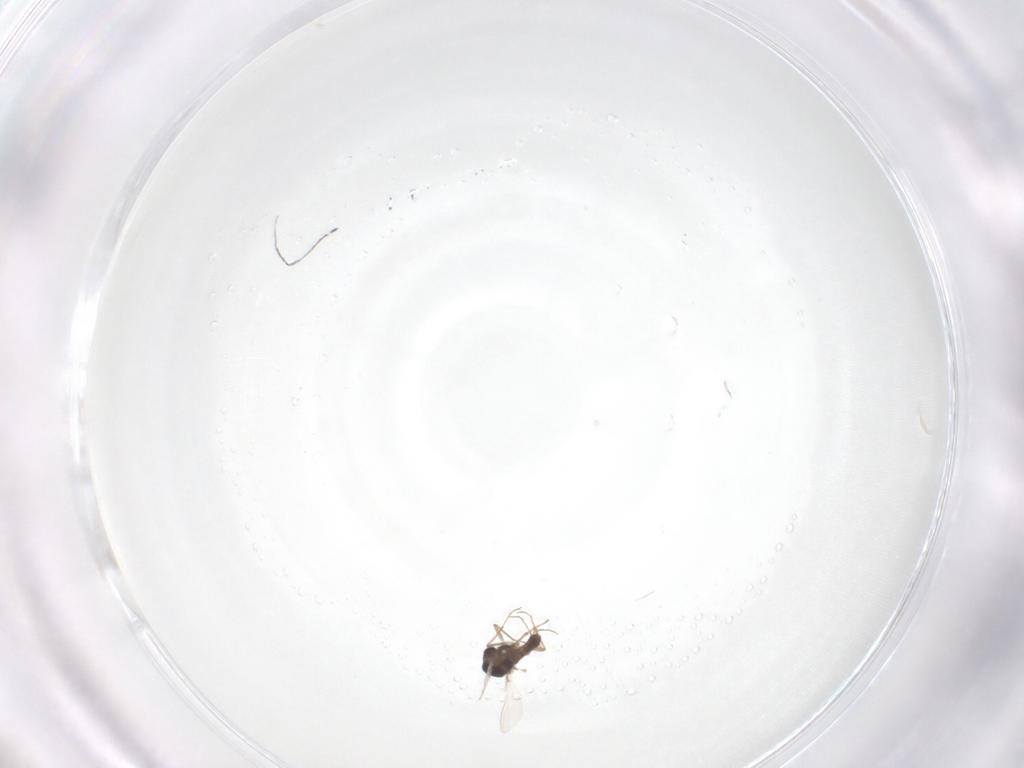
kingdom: Animalia
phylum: Arthropoda
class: Insecta
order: Diptera
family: Chironomidae
